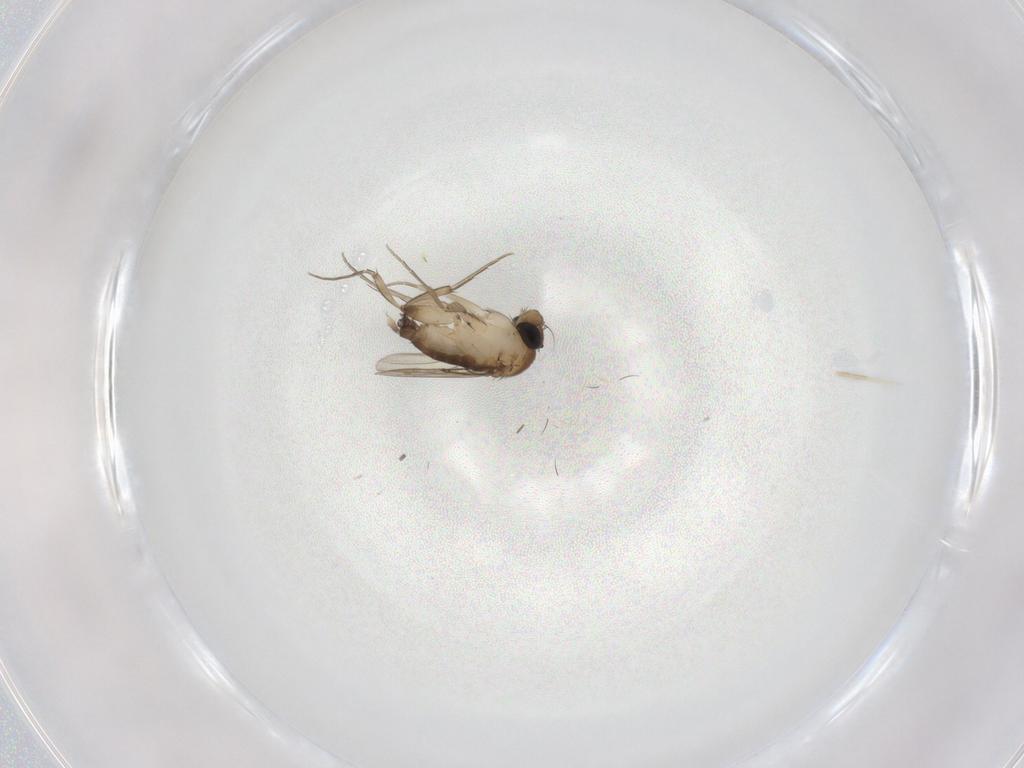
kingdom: Animalia
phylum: Arthropoda
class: Insecta
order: Diptera
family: Phoridae
